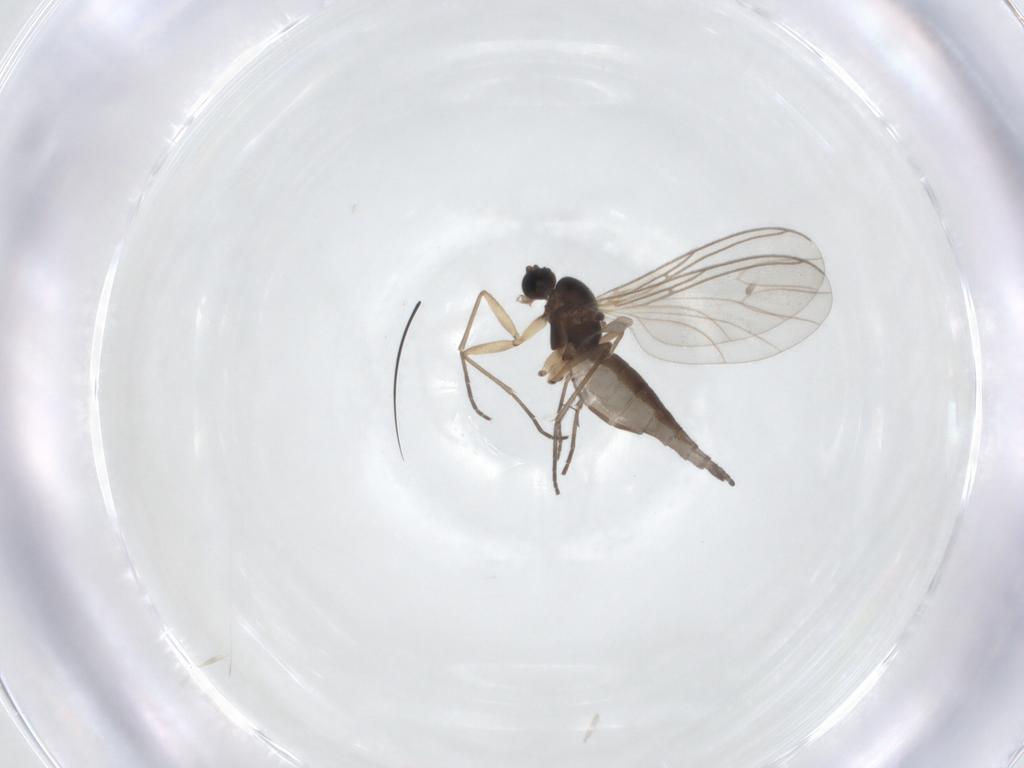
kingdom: Animalia
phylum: Arthropoda
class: Insecta
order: Diptera
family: Sciaridae
